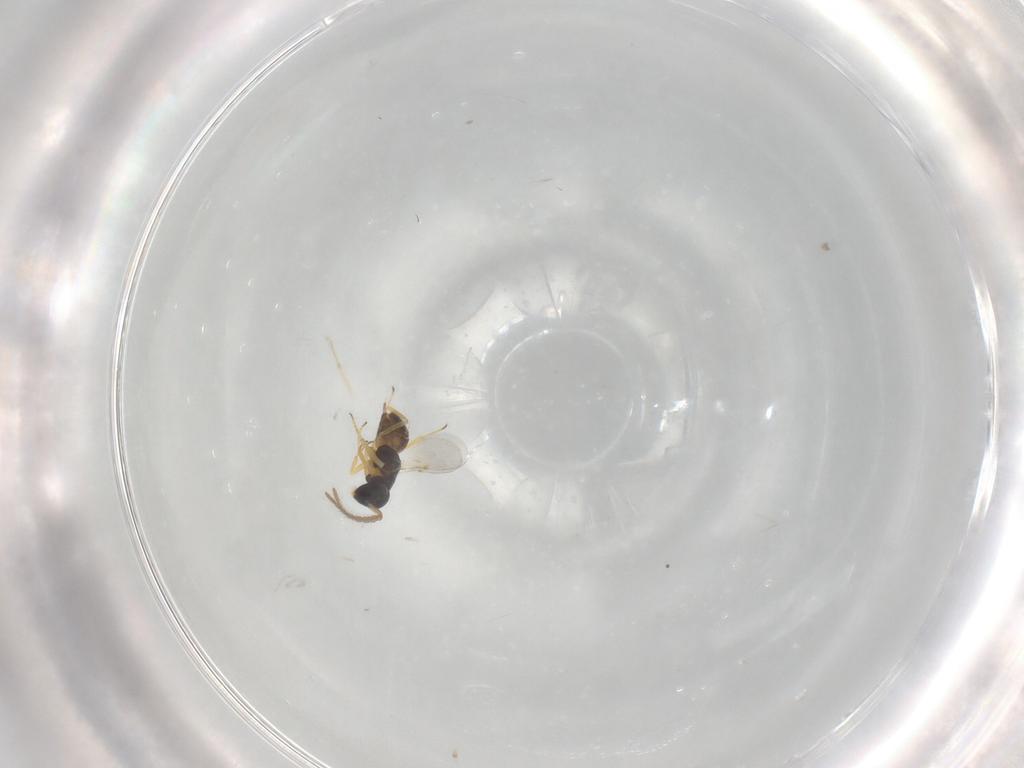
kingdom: Animalia
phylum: Arthropoda
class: Insecta
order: Hymenoptera
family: Encyrtidae
